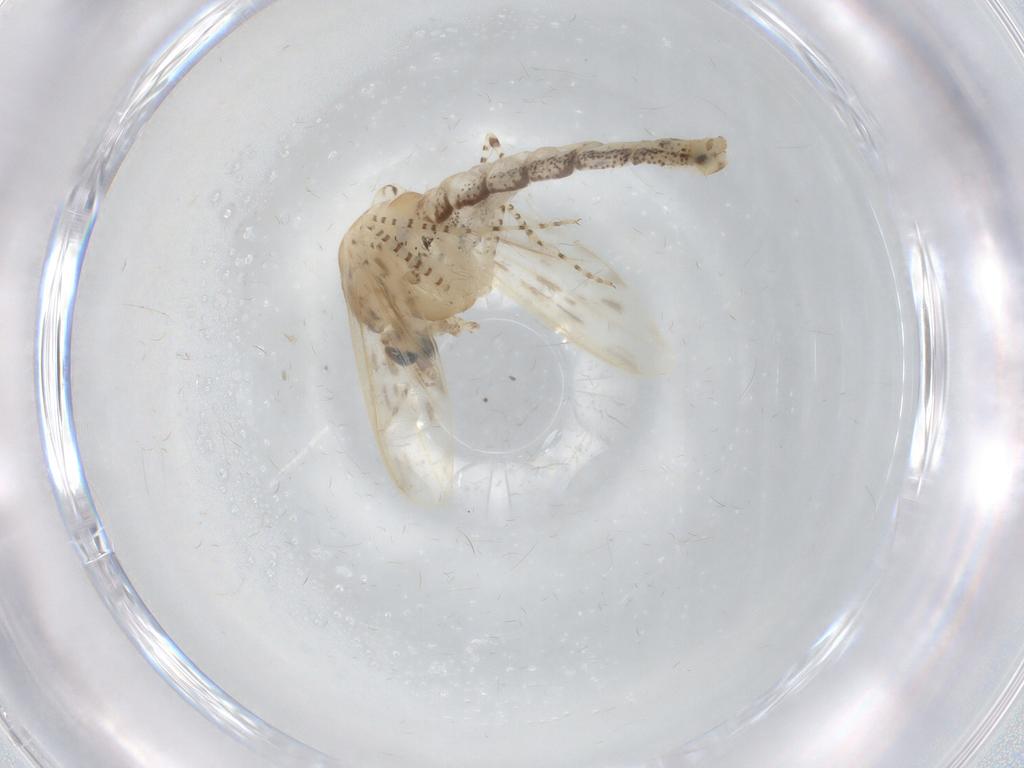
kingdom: Animalia
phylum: Arthropoda
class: Insecta
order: Diptera
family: Chaoboridae
